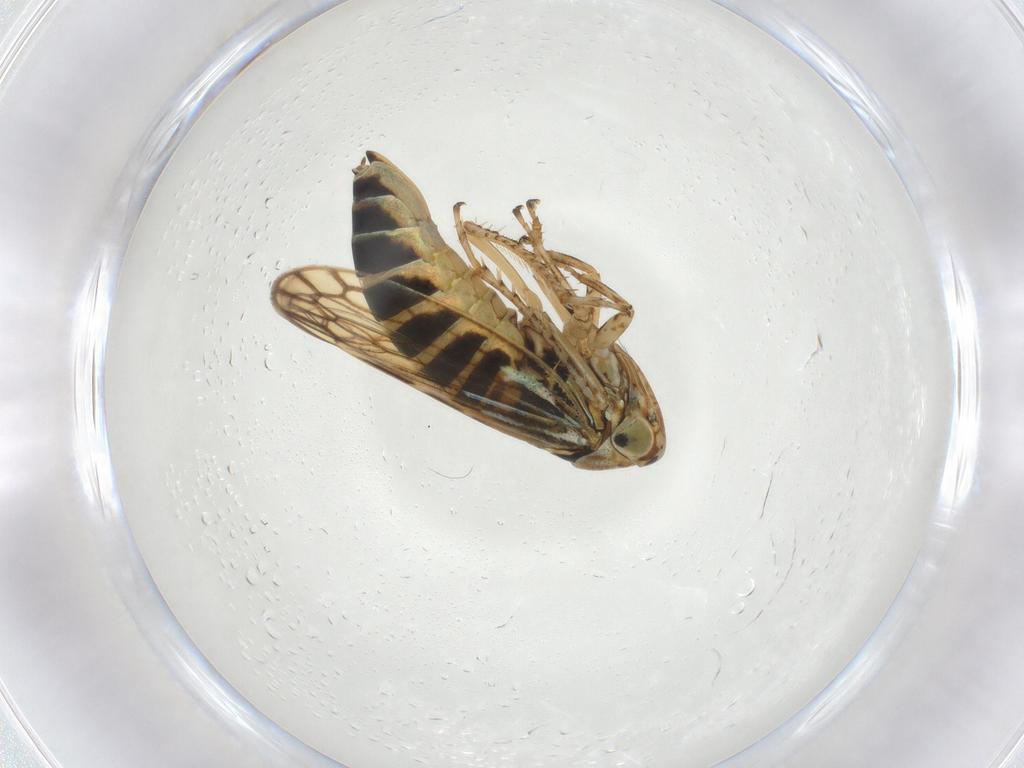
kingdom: Animalia
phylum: Arthropoda
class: Insecta
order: Hemiptera
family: Cicadellidae
